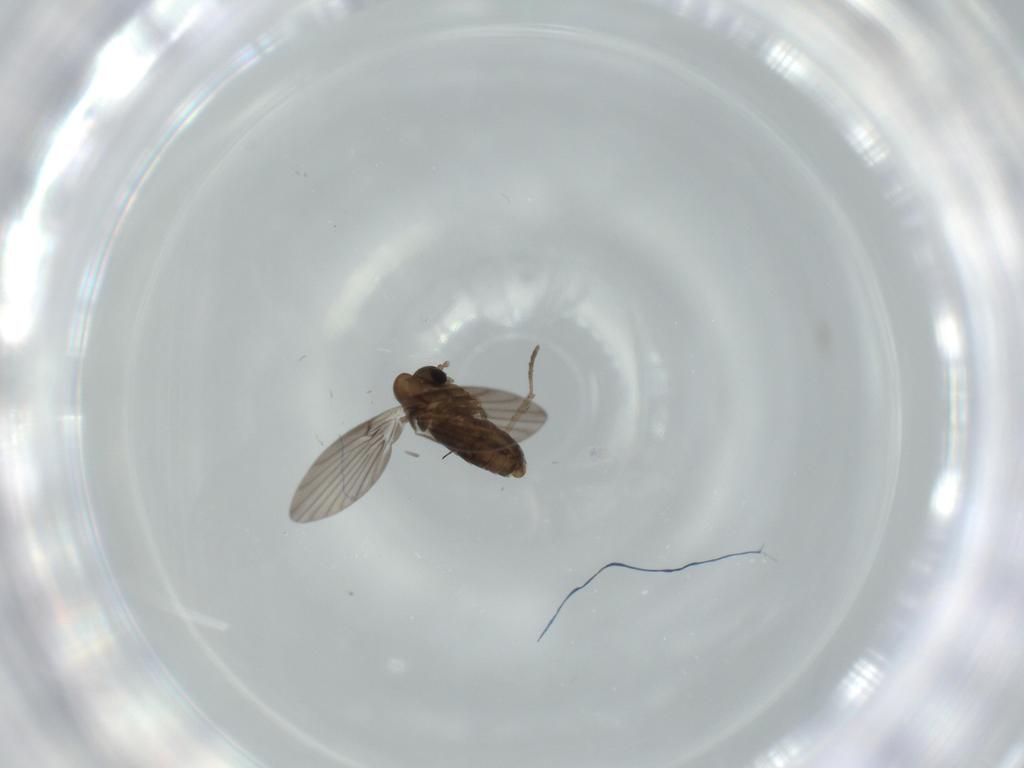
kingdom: Animalia
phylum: Arthropoda
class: Insecta
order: Diptera
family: Psychodidae
